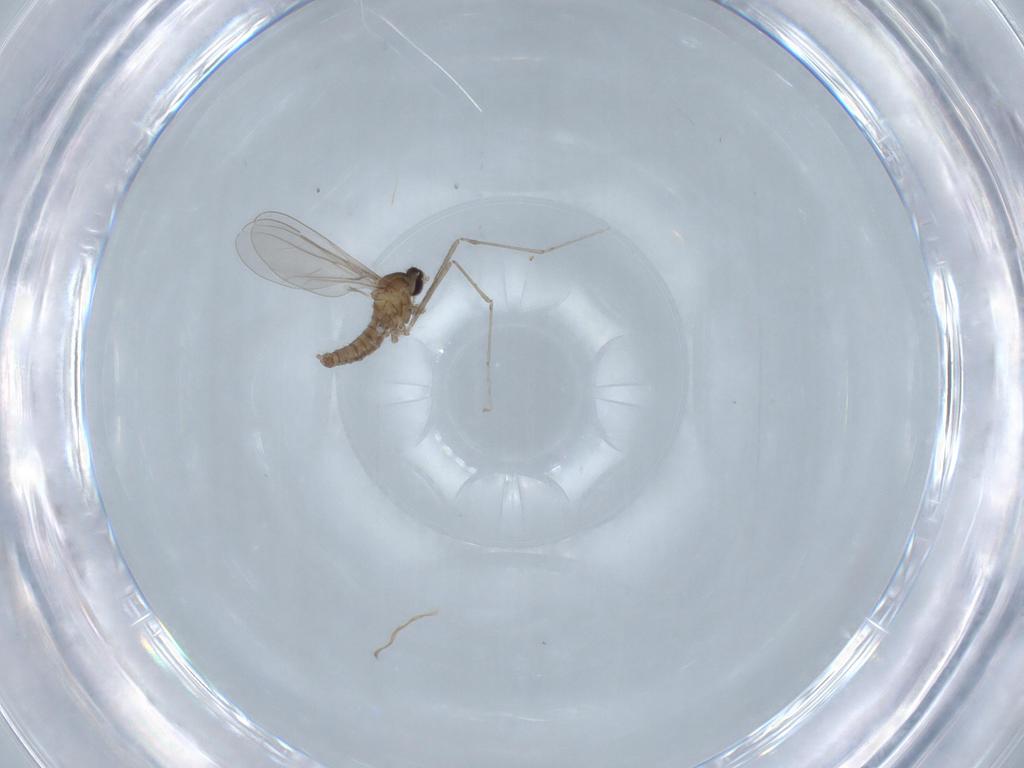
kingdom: Animalia
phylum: Arthropoda
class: Insecta
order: Diptera
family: Cecidomyiidae
